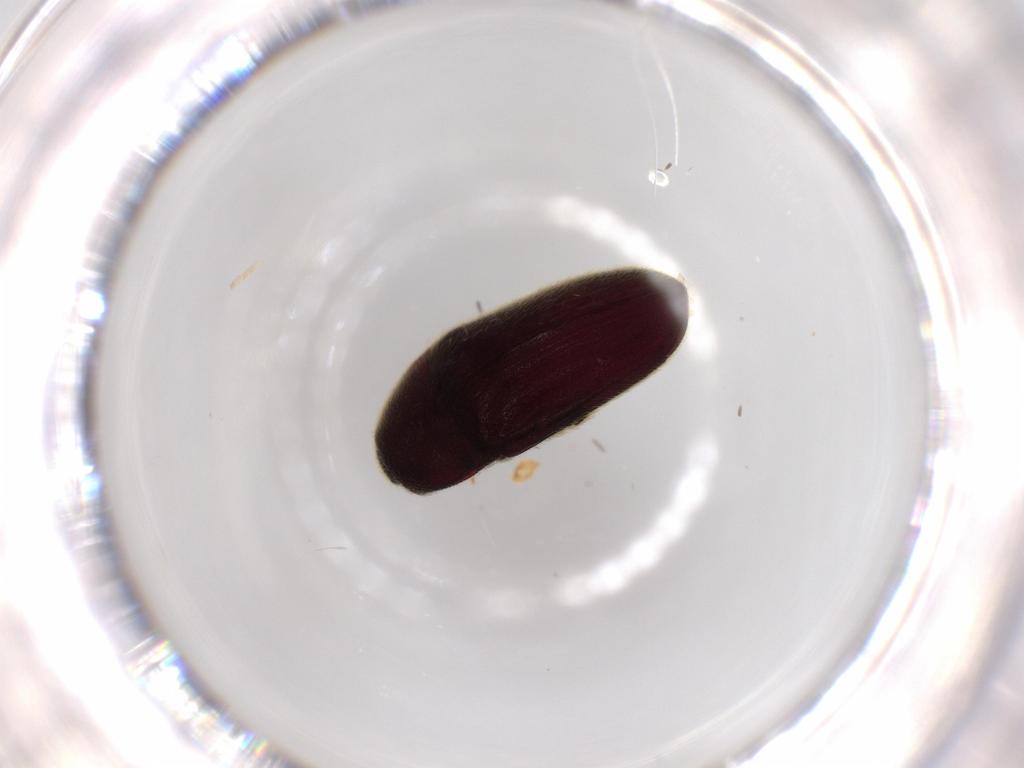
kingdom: Animalia
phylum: Arthropoda
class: Insecta
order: Coleoptera
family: Throscidae
